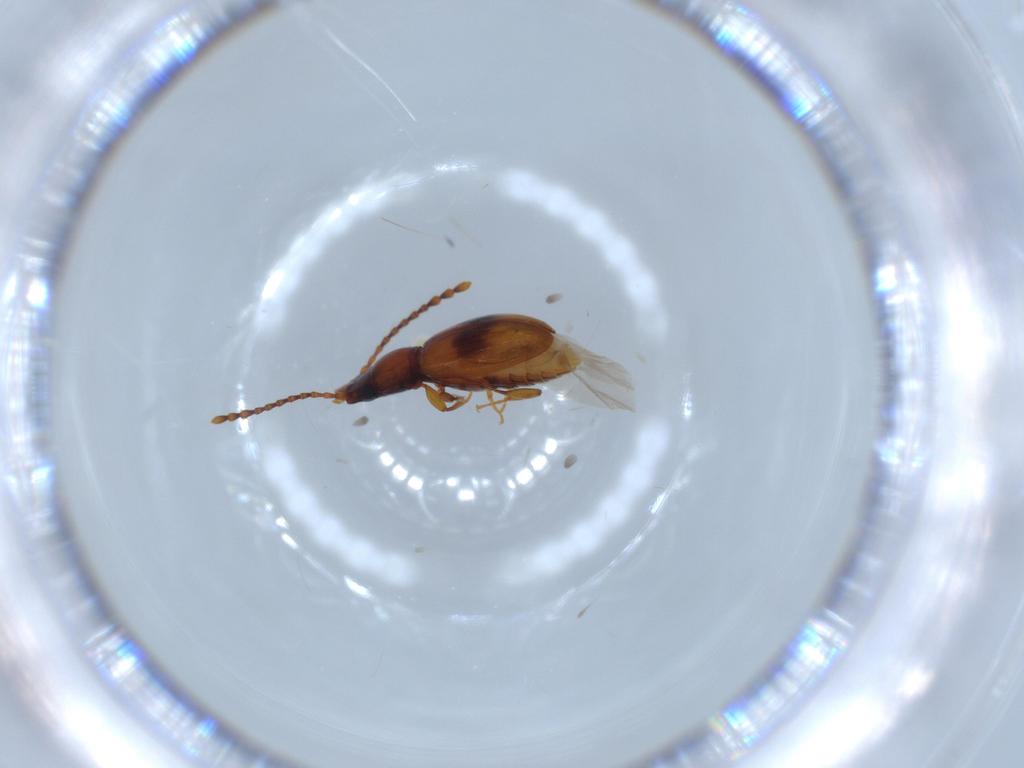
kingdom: Animalia
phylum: Arthropoda
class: Insecta
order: Coleoptera
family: Laemophloeidae
